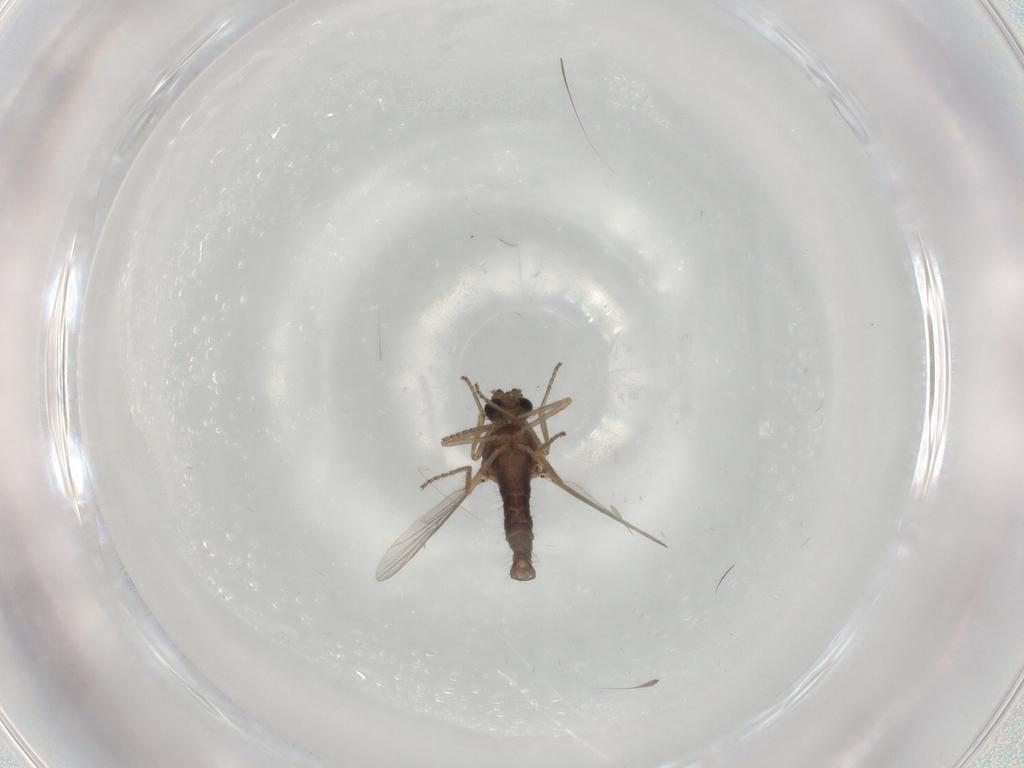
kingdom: Animalia
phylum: Arthropoda
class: Insecta
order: Diptera
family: Ceratopogonidae
